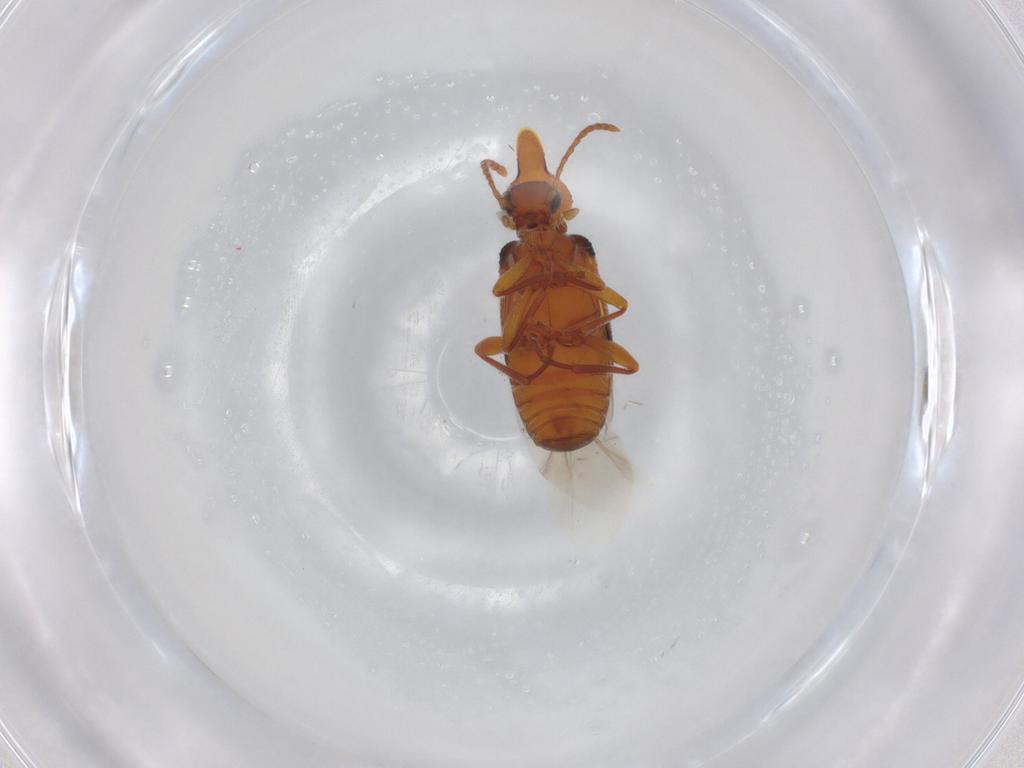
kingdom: Animalia
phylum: Arthropoda
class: Insecta
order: Coleoptera
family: Anthicidae
